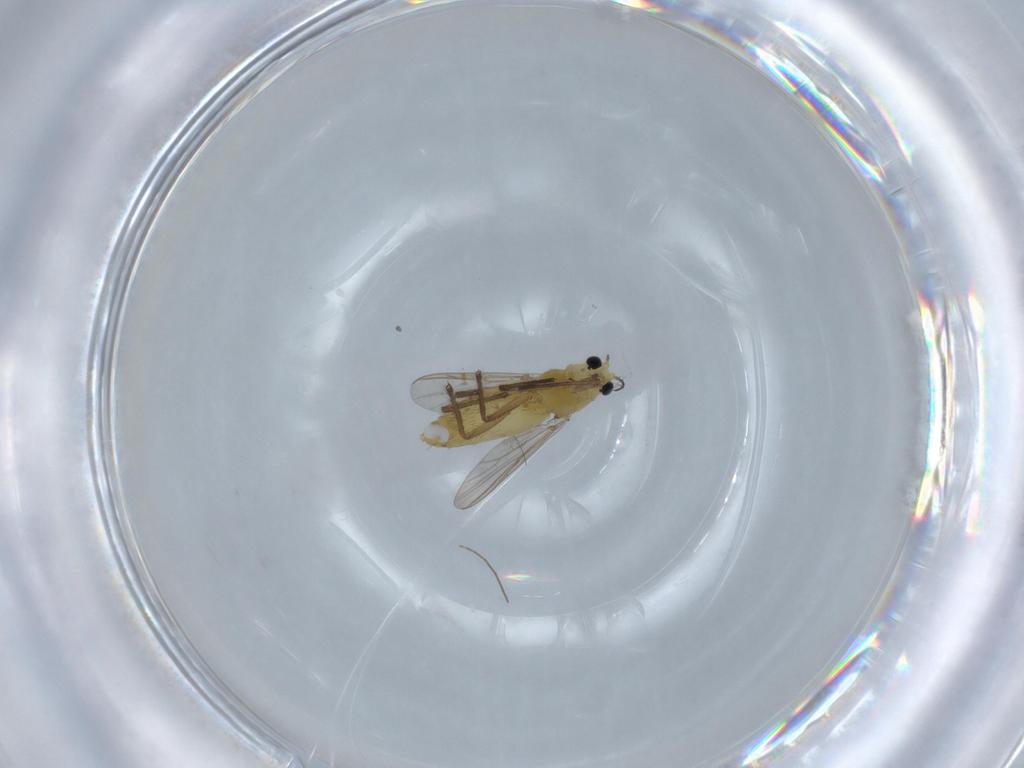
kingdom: Animalia
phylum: Arthropoda
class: Insecta
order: Diptera
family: Chironomidae
